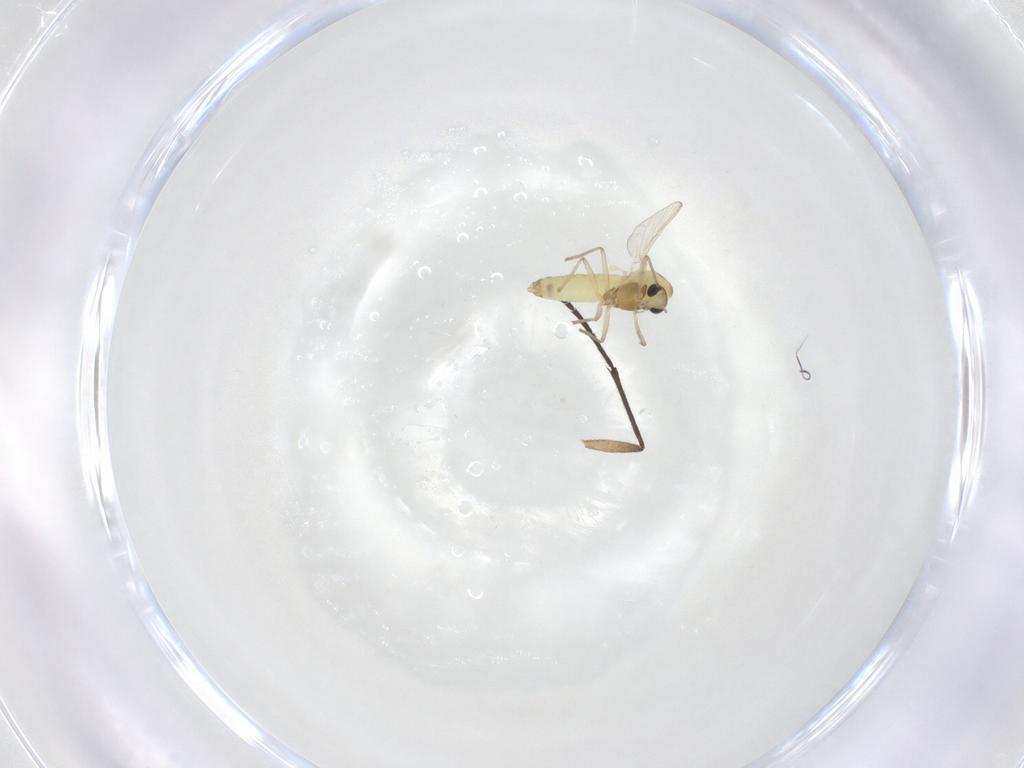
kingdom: Animalia
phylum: Arthropoda
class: Insecta
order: Diptera
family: Chironomidae
